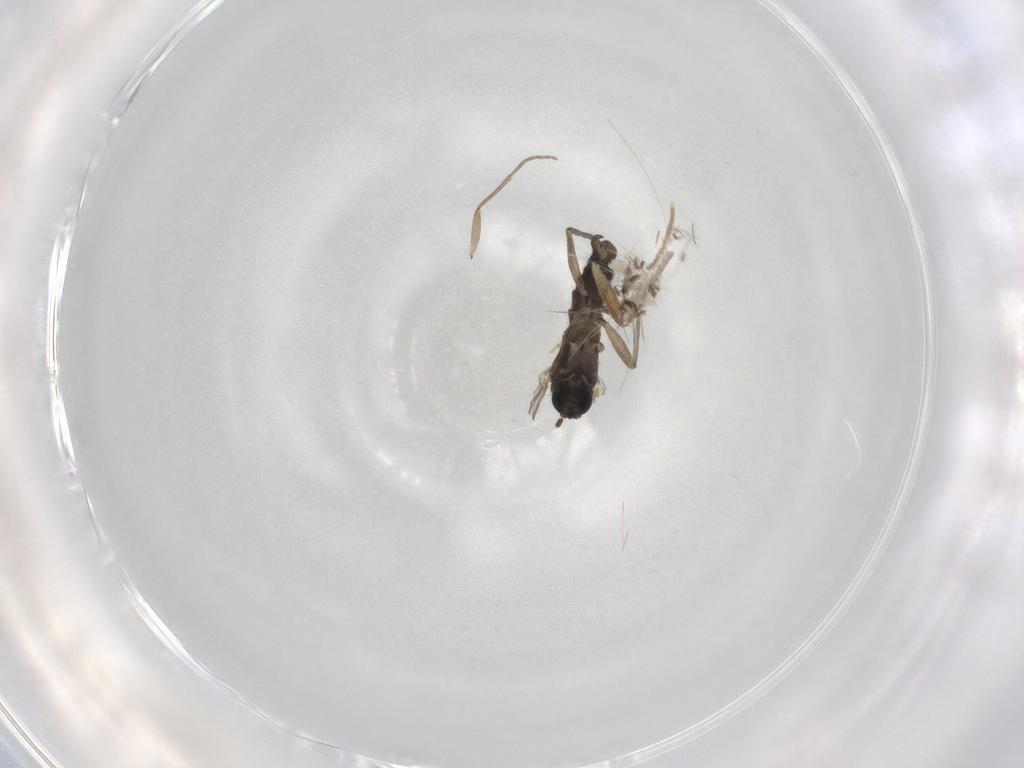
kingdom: Animalia
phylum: Arthropoda
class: Insecta
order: Diptera
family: Sciaridae
